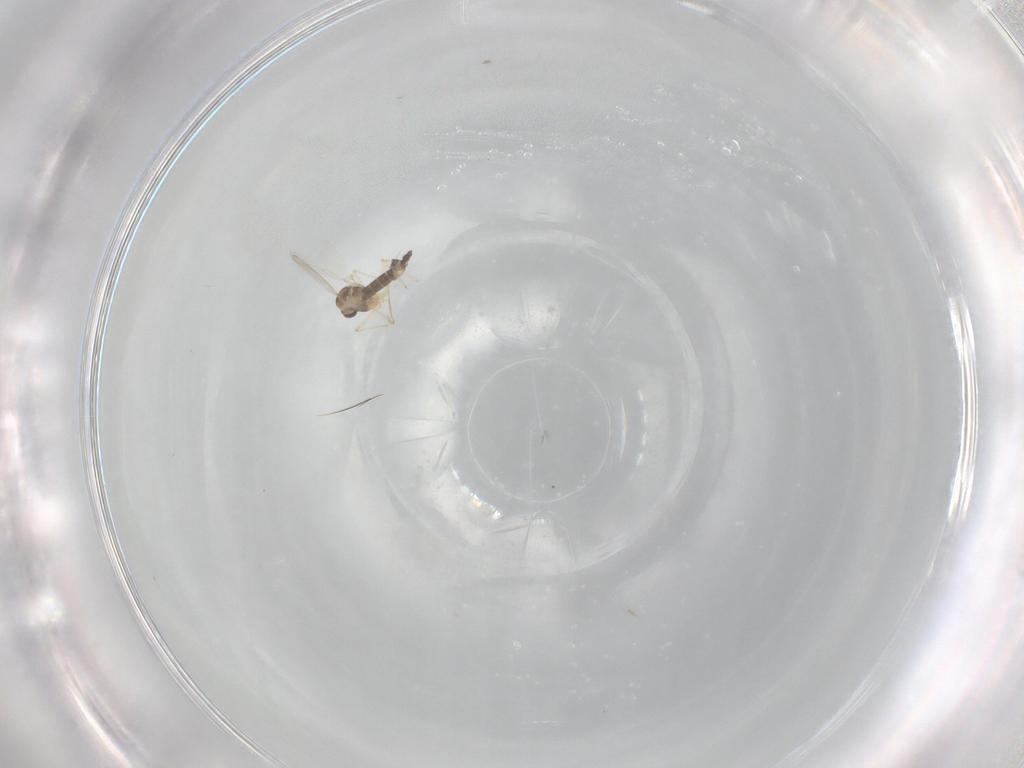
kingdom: Animalia
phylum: Arthropoda
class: Insecta
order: Diptera
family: Chironomidae
